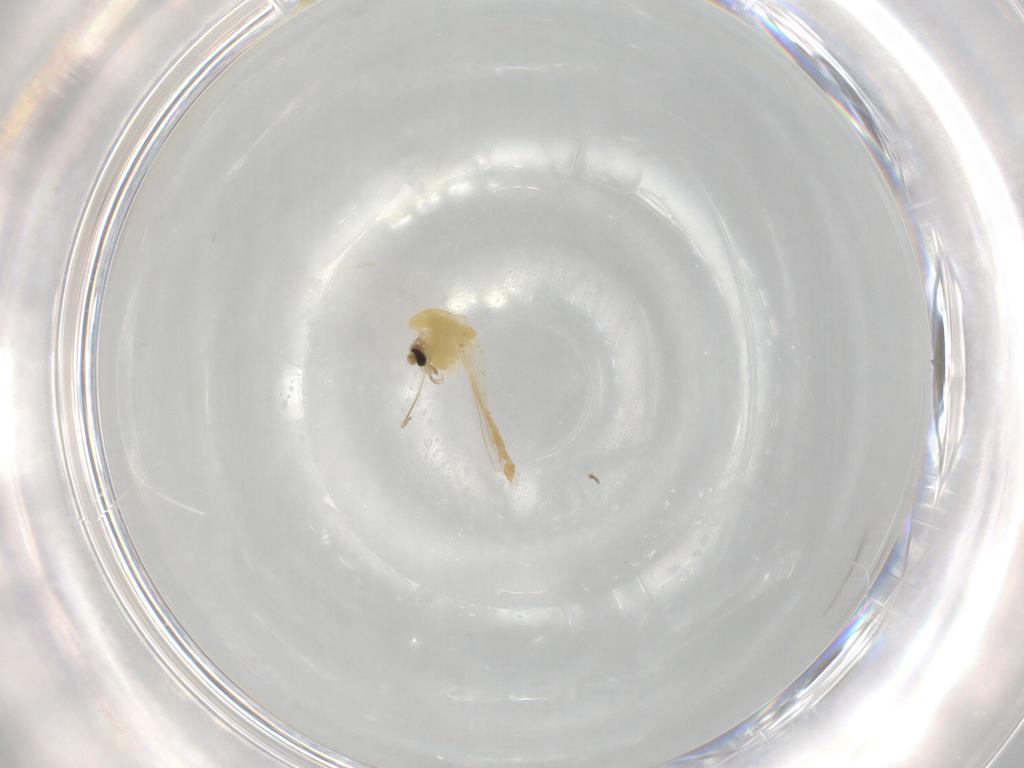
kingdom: Animalia
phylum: Arthropoda
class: Insecta
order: Diptera
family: Chironomidae
